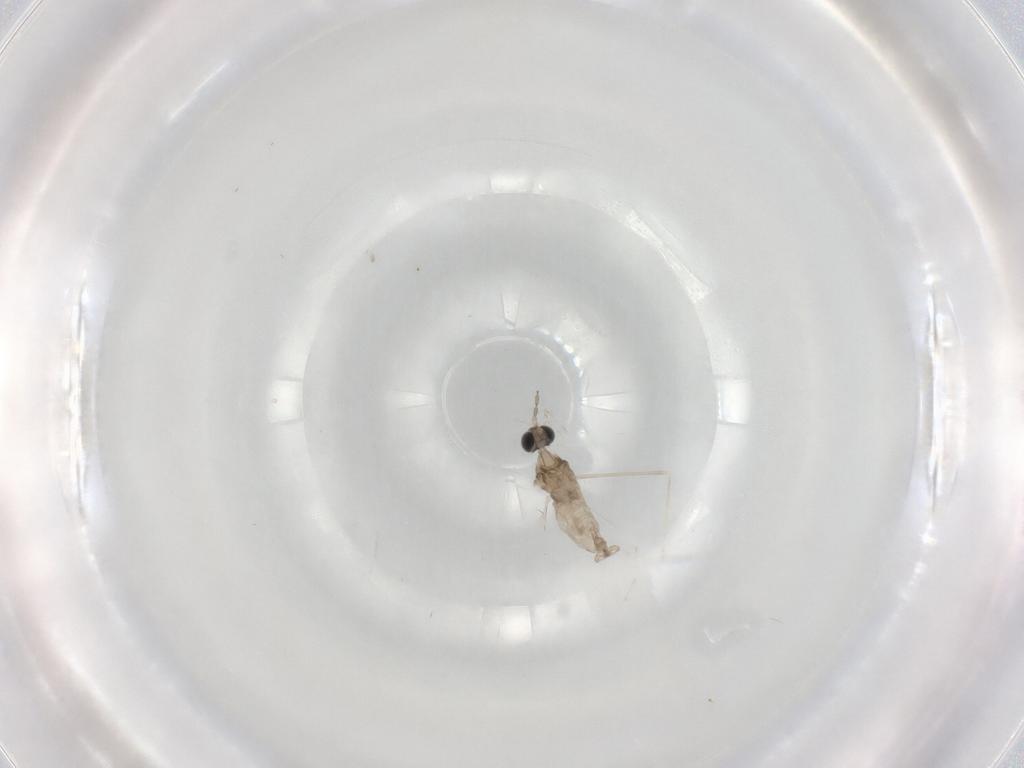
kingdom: Animalia
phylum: Arthropoda
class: Insecta
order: Diptera
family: Cecidomyiidae
